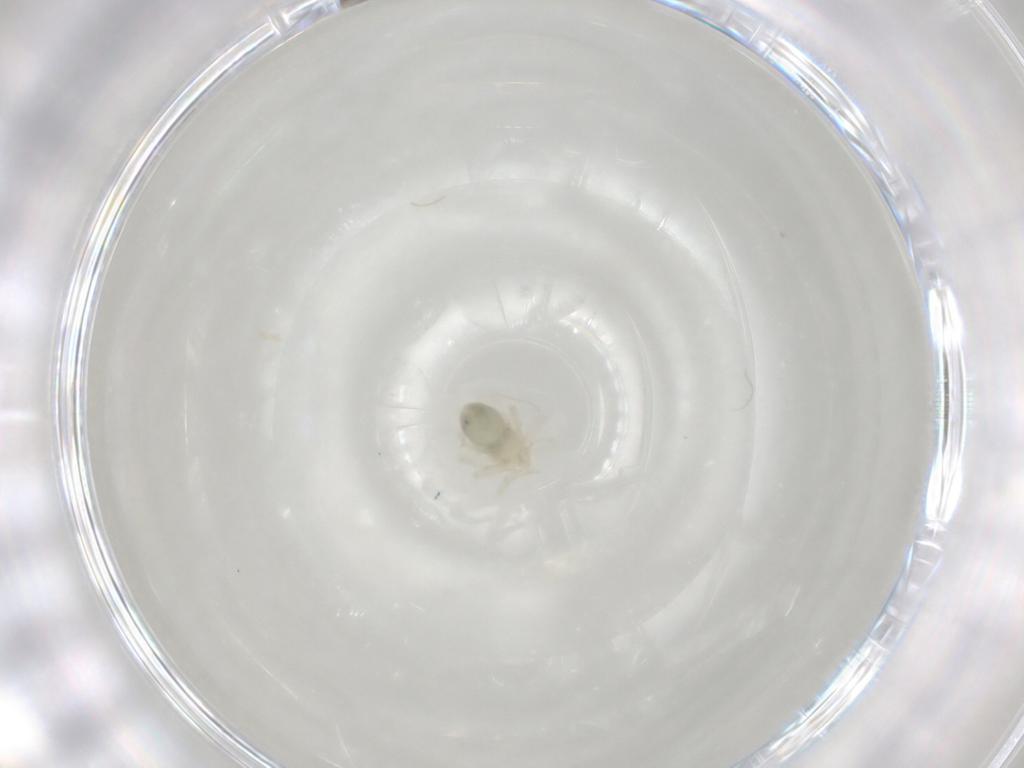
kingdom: Animalia
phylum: Arthropoda
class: Arachnida
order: Trombidiformes
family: Anystidae
